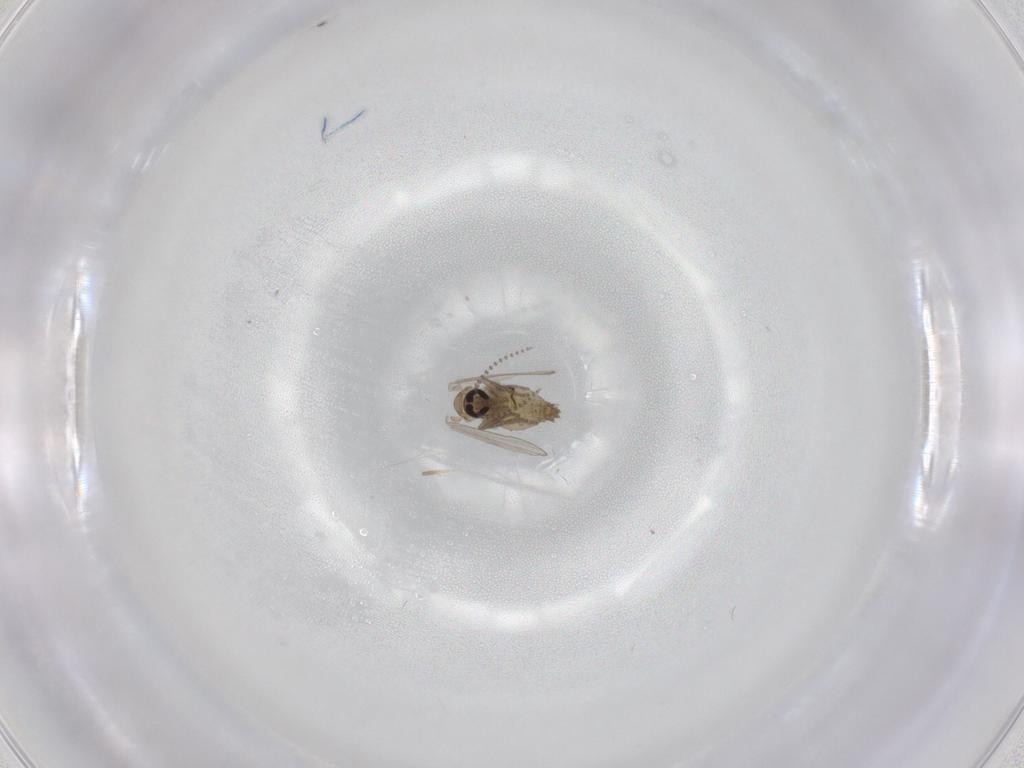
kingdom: Animalia
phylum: Arthropoda
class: Insecta
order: Diptera
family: Psychodidae
